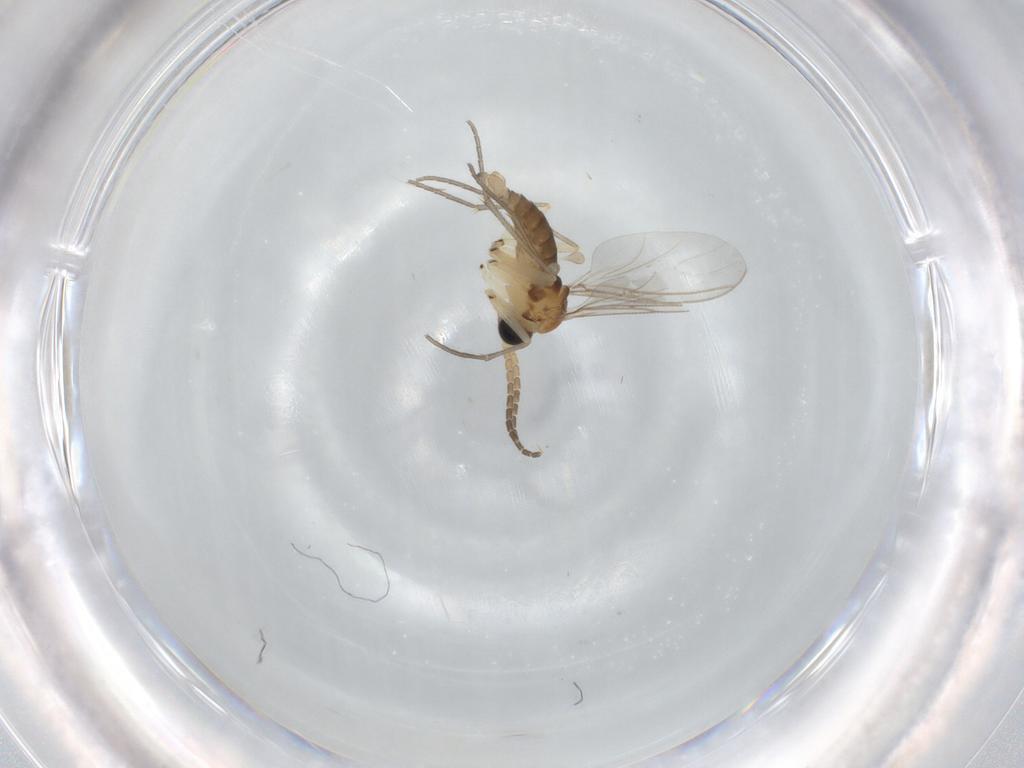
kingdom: Animalia
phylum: Arthropoda
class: Insecta
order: Diptera
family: Sciaridae
